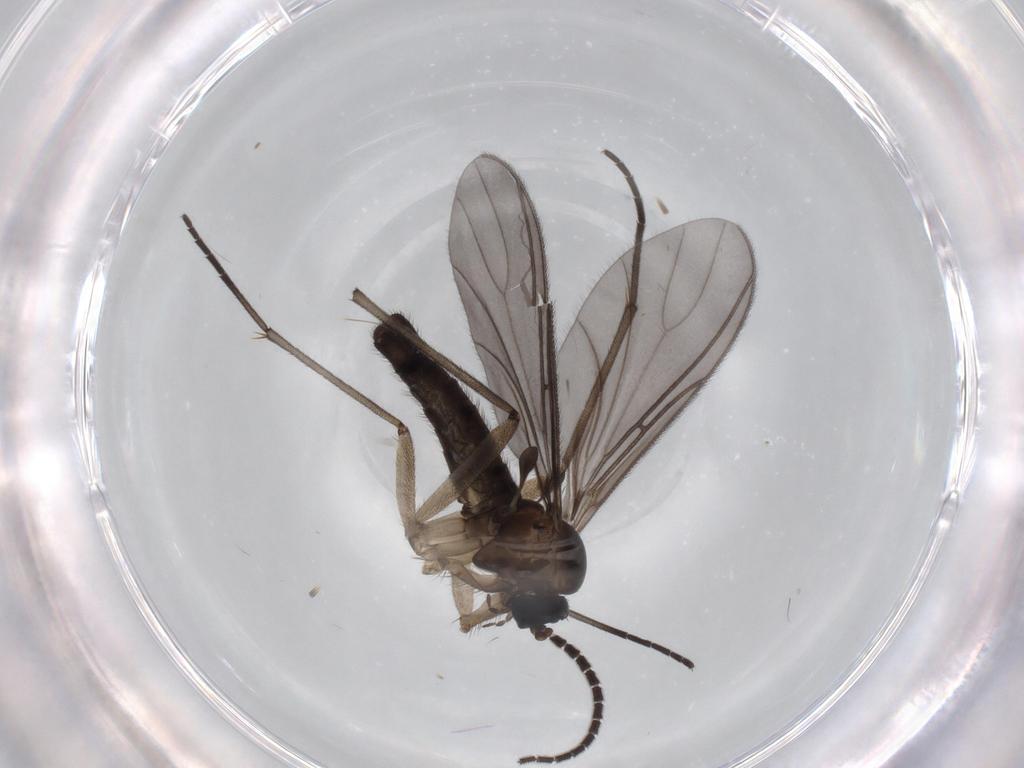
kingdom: Animalia
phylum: Arthropoda
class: Insecta
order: Diptera
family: Sciaridae
